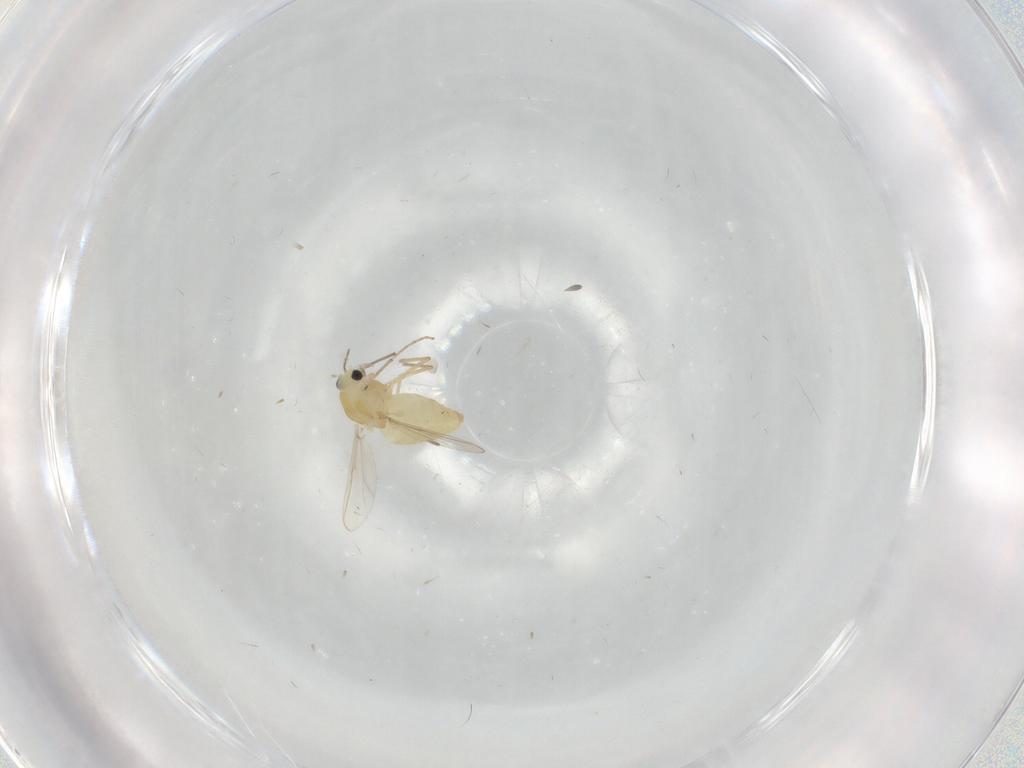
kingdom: Animalia
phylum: Arthropoda
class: Insecta
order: Diptera
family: Chironomidae
